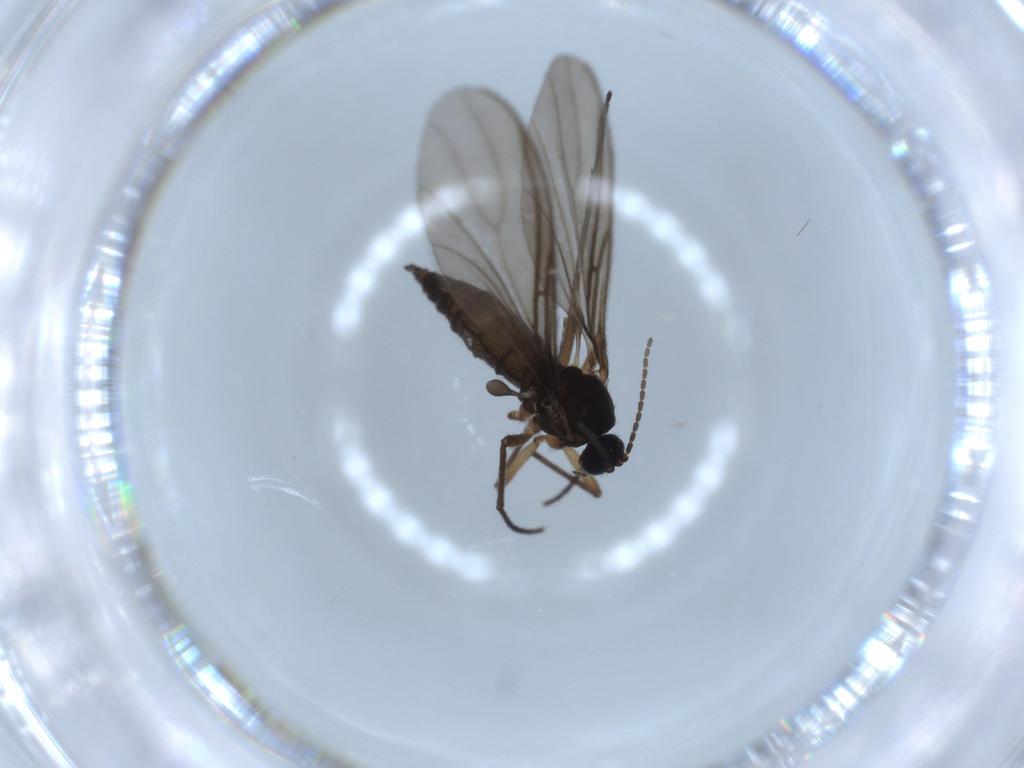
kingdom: Animalia
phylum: Arthropoda
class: Insecta
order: Diptera
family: Sciaridae
